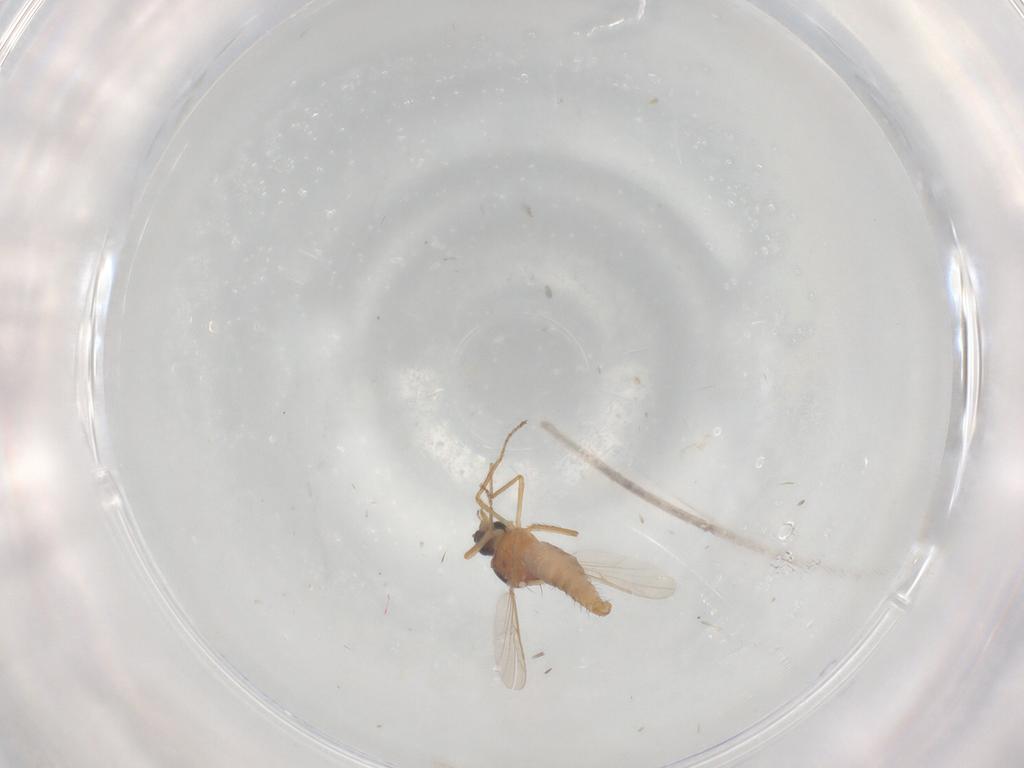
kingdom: Animalia
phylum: Arthropoda
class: Insecta
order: Diptera
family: Ceratopogonidae
